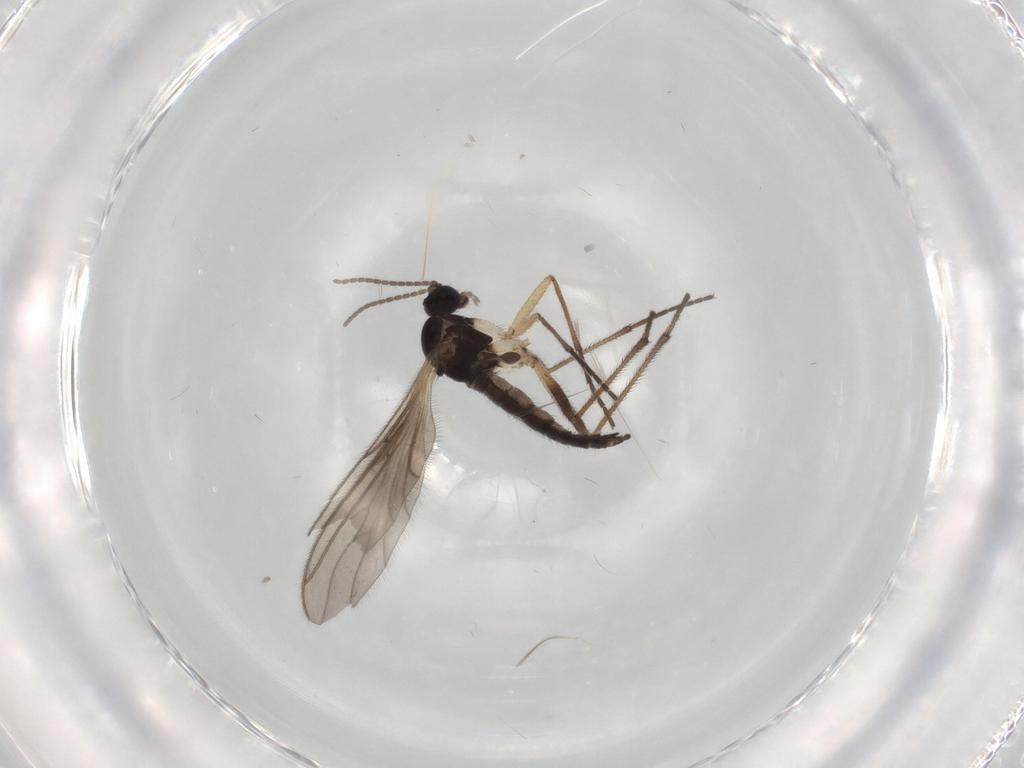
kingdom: Animalia
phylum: Arthropoda
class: Insecta
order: Diptera
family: Sciaridae
